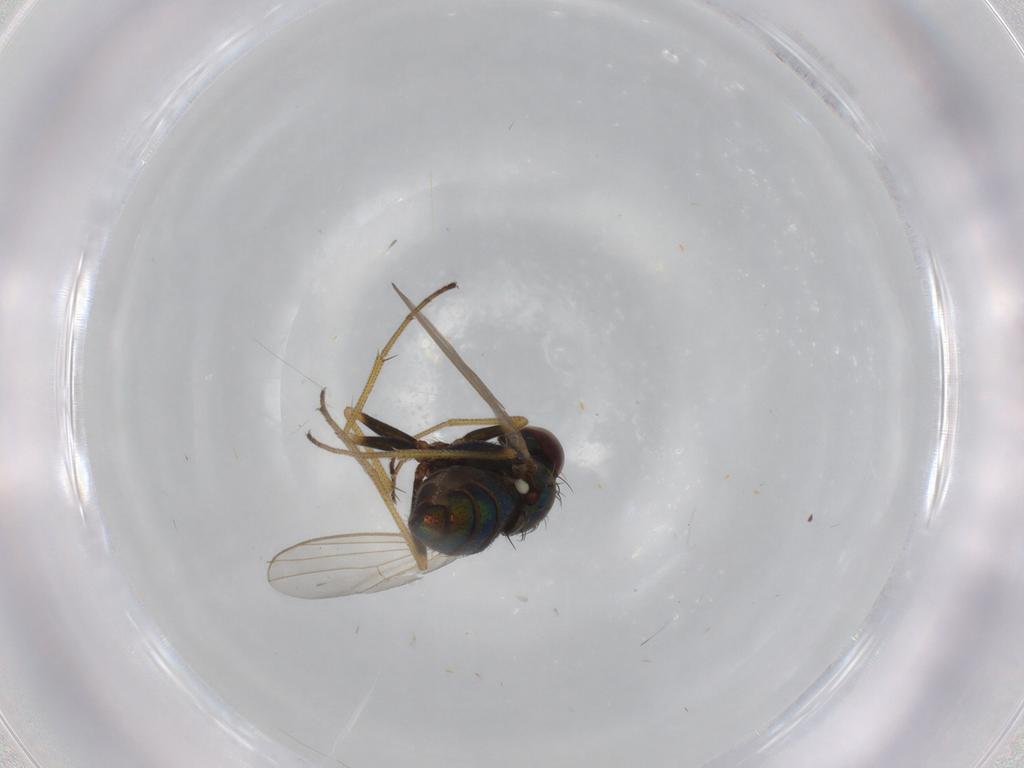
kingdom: Animalia
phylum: Arthropoda
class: Insecta
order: Diptera
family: Dolichopodidae
